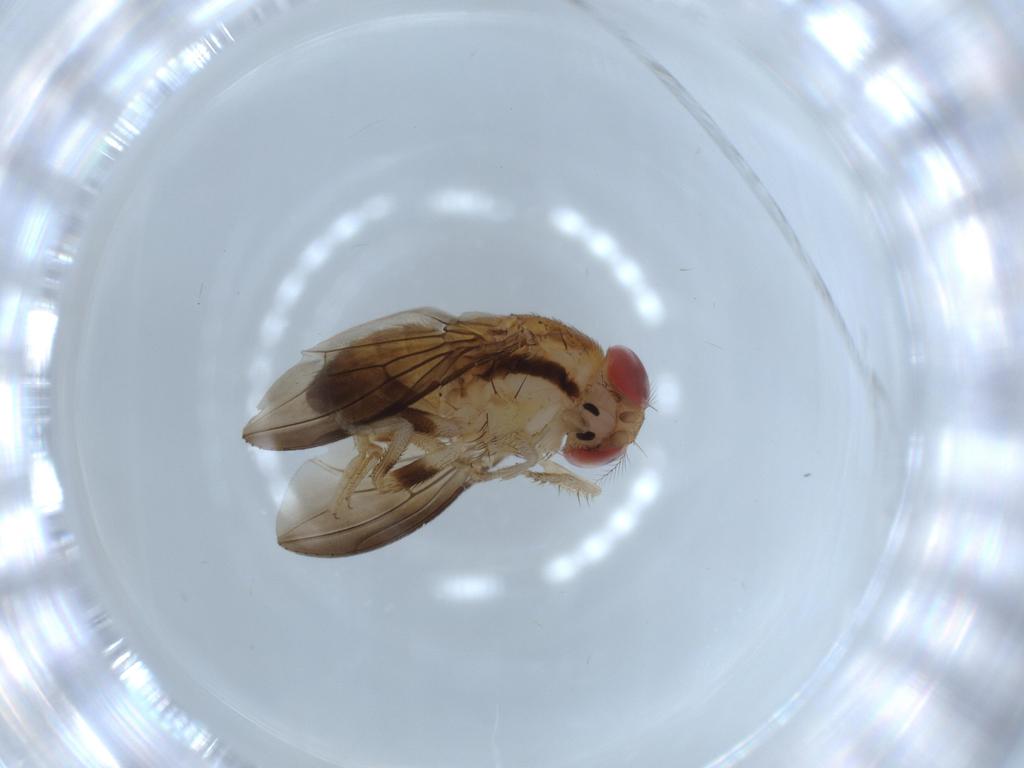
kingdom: Animalia
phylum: Arthropoda
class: Insecta
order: Diptera
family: Drosophilidae
